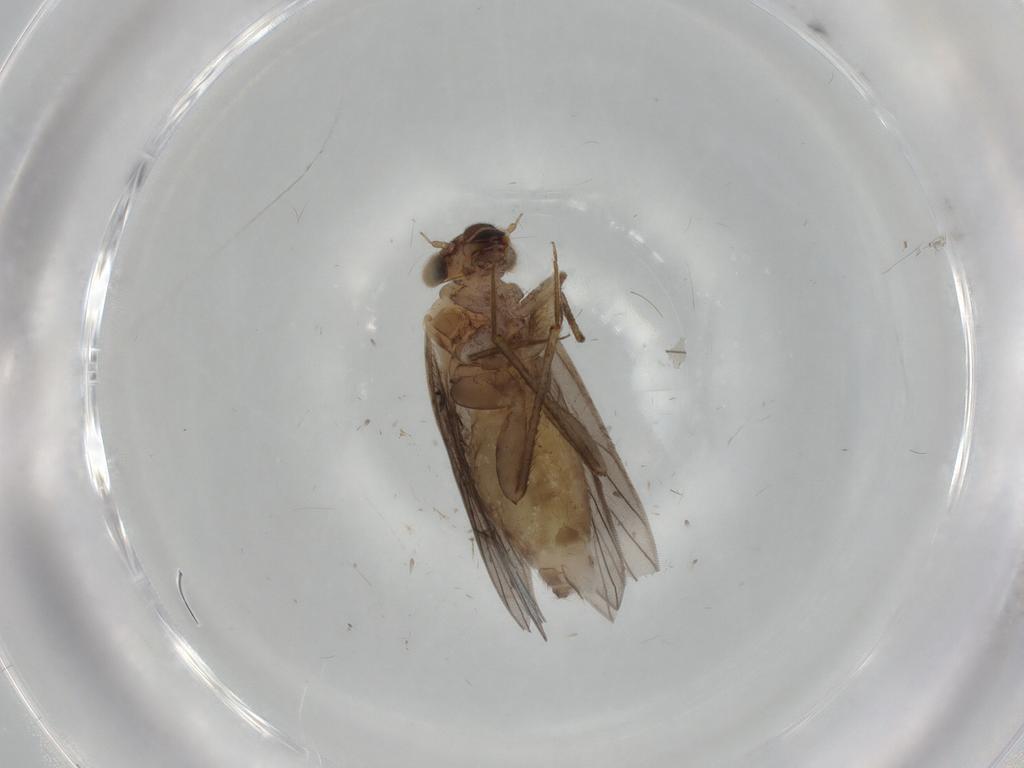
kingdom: Animalia
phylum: Arthropoda
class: Insecta
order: Psocodea
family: Lepidopsocidae
